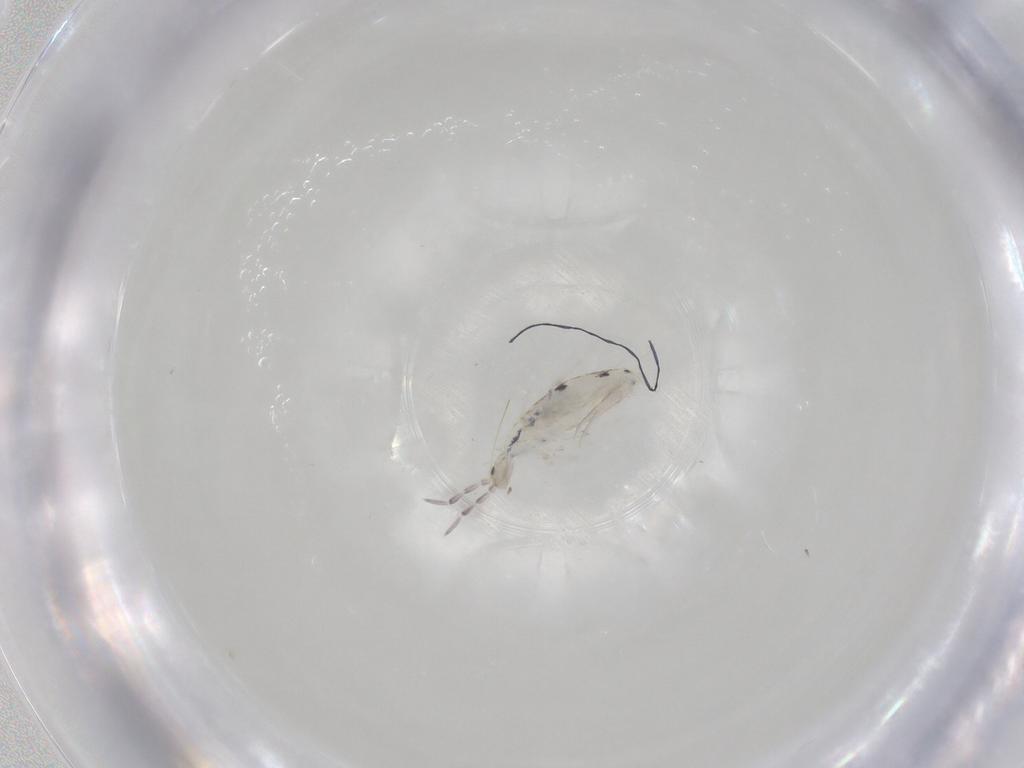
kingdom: Animalia
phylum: Arthropoda
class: Collembola
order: Entomobryomorpha
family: Entomobryidae
